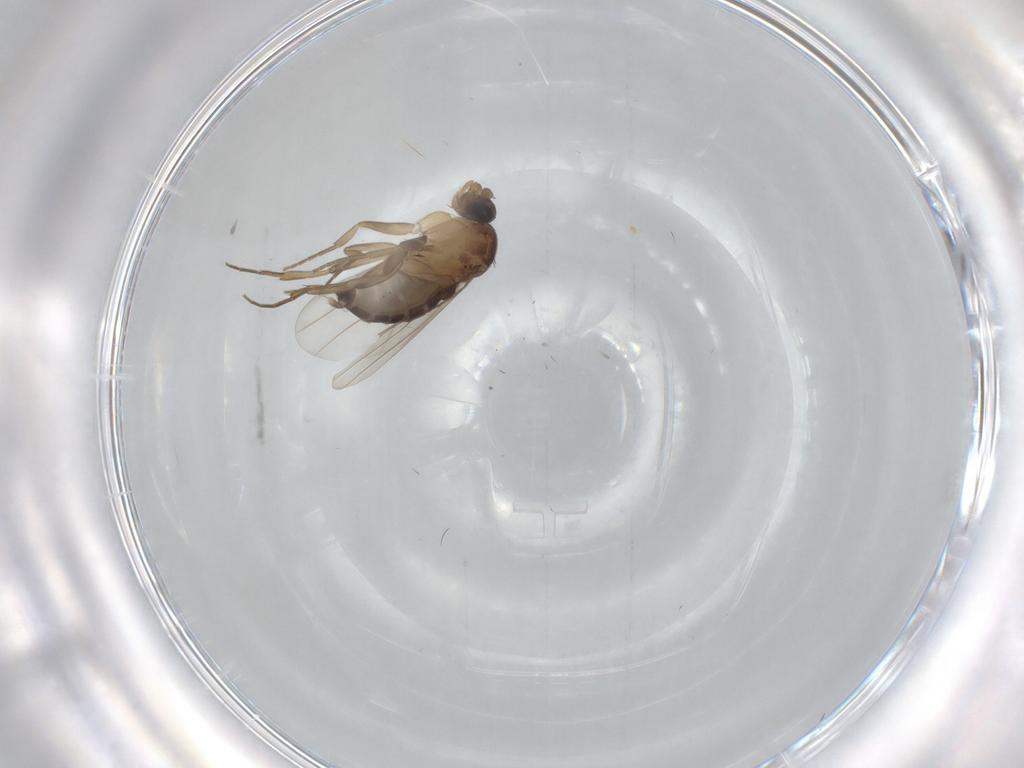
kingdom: Animalia
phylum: Arthropoda
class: Insecta
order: Diptera
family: Phoridae
